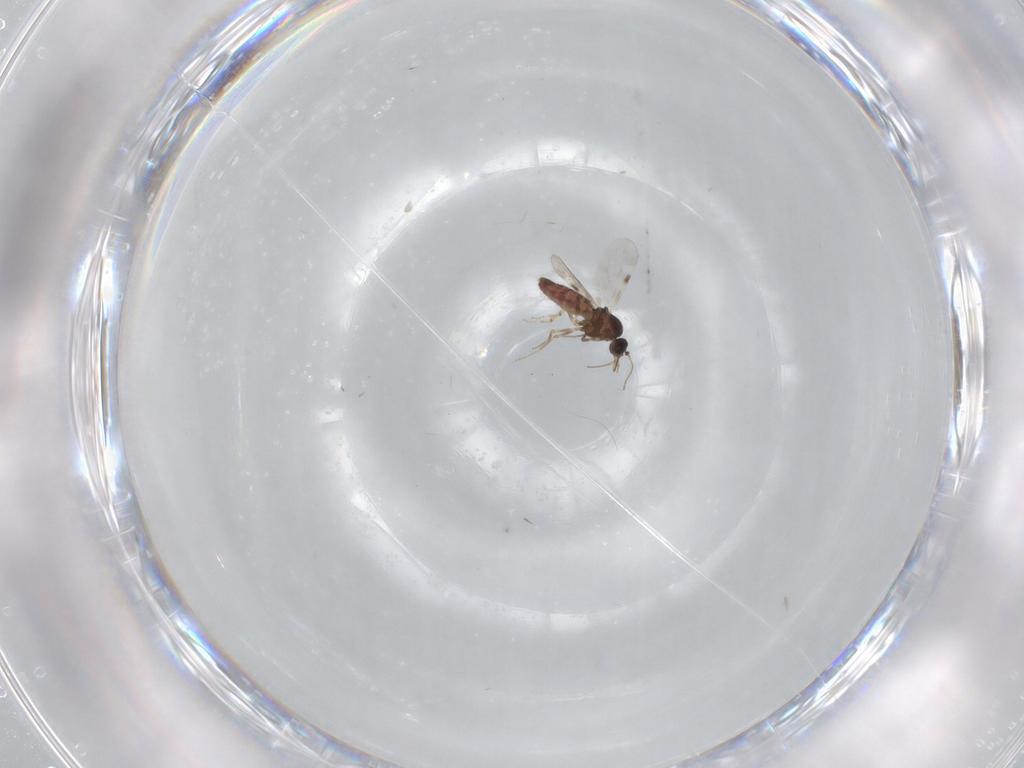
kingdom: Animalia
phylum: Arthropoda
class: Insecta
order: Diptera
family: Psychodidae
